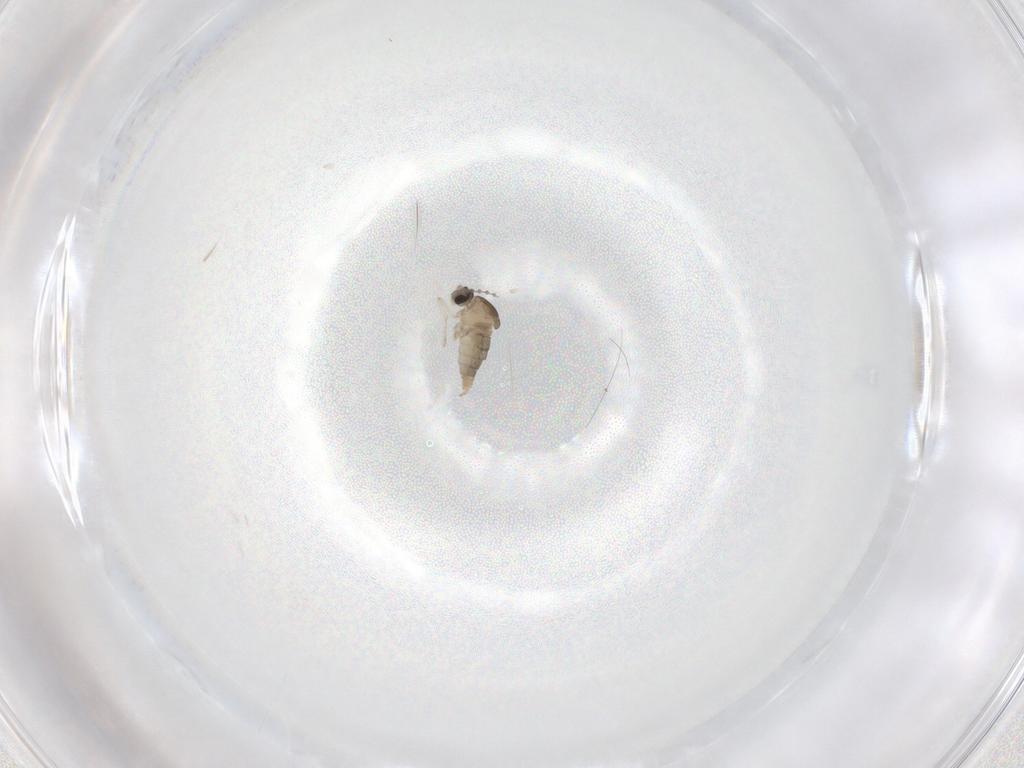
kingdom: Animalia
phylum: Arthropoda
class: Insecta
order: Diptera
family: Cecidomyiidae
